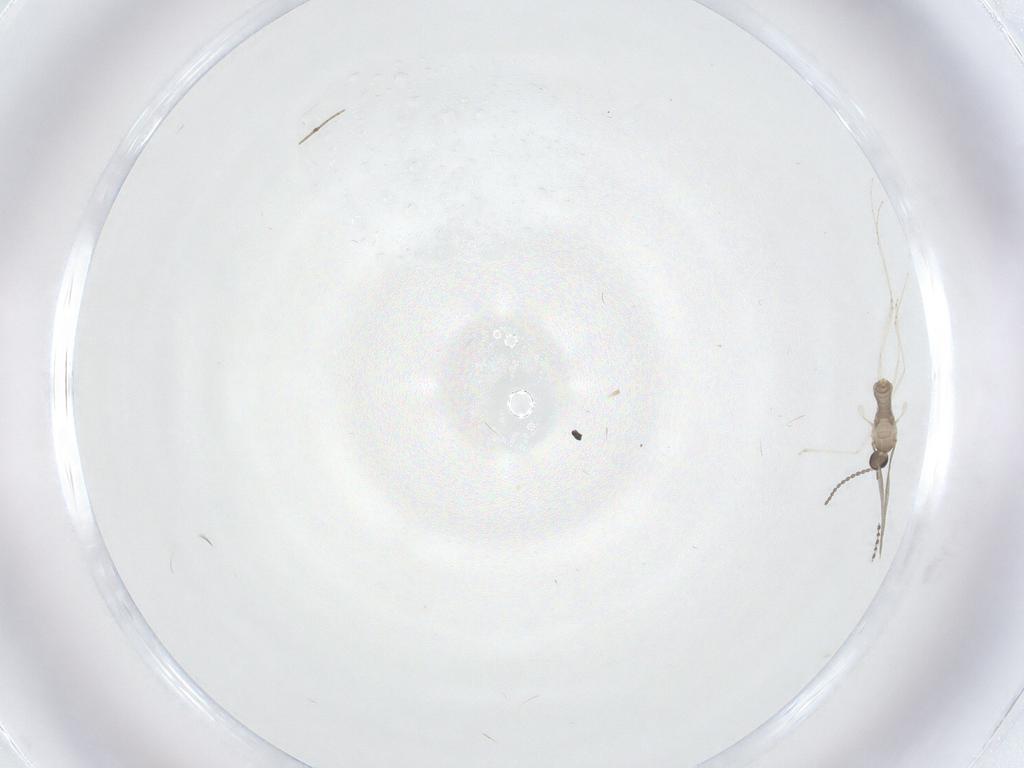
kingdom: Animalia
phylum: Arthropoda
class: Insecta
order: Diptera
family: Cecidomyiidae
